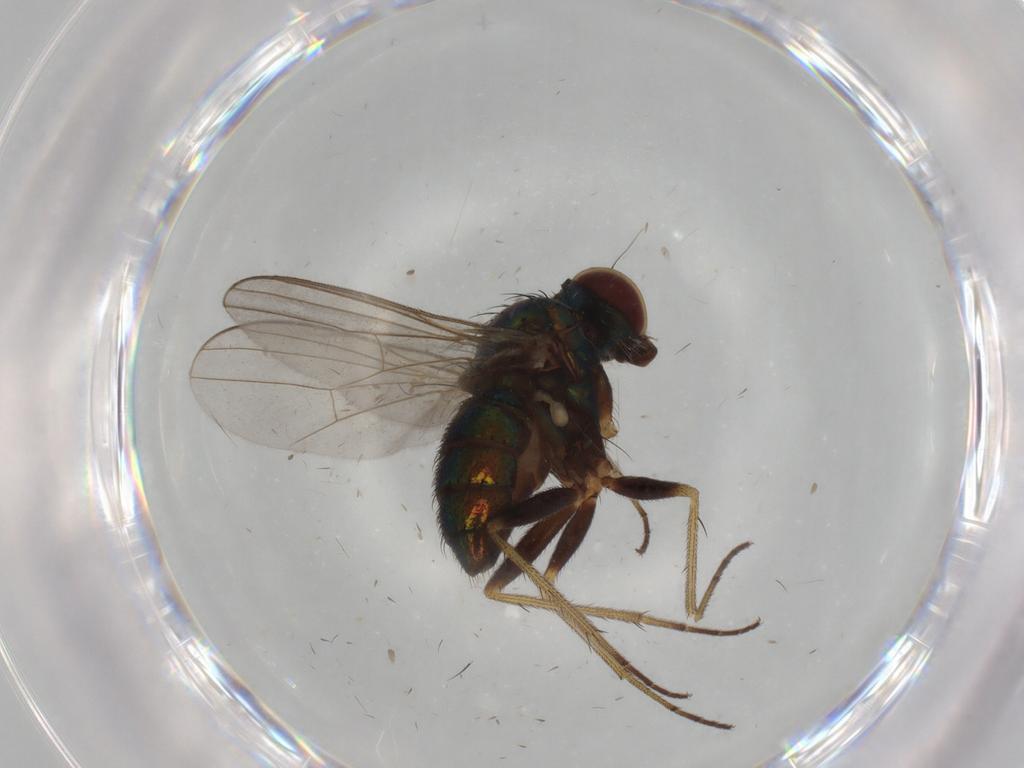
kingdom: Animalia
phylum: Arthropoda
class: Insecta
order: Diptera
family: Dolichopodidae
